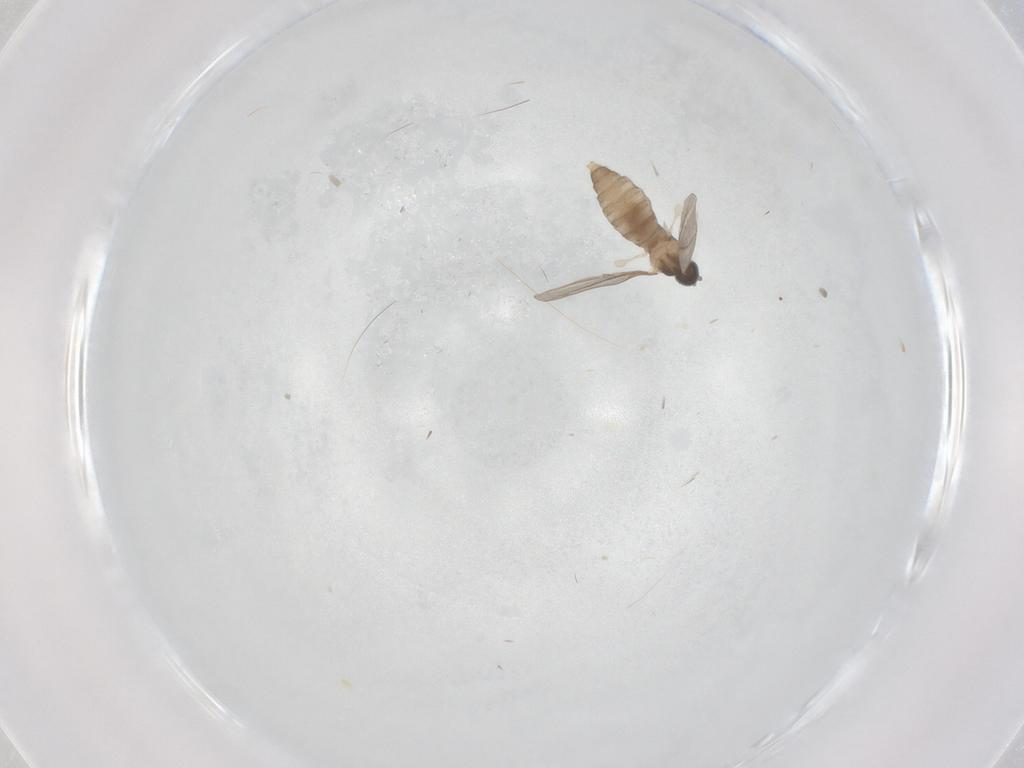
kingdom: Animalia
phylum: Arthropoda
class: Insecta
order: Diptera
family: Cecidomyiidae
